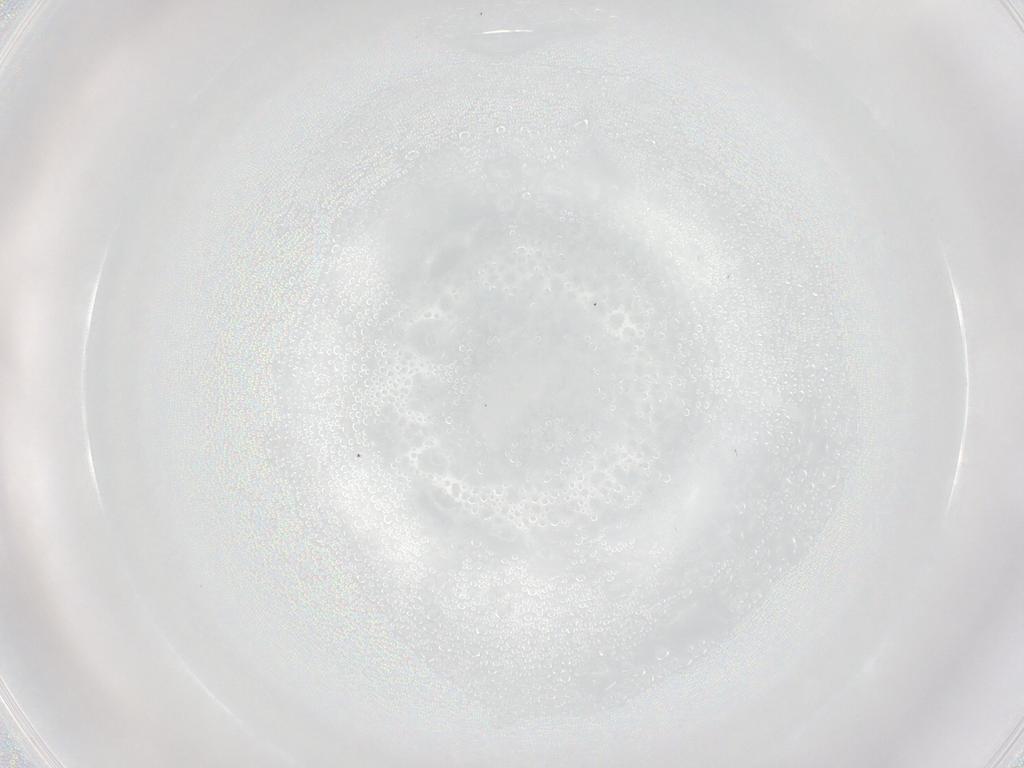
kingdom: Animalia
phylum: Arthropoda
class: Insecta
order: Diptera
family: Phoridae
